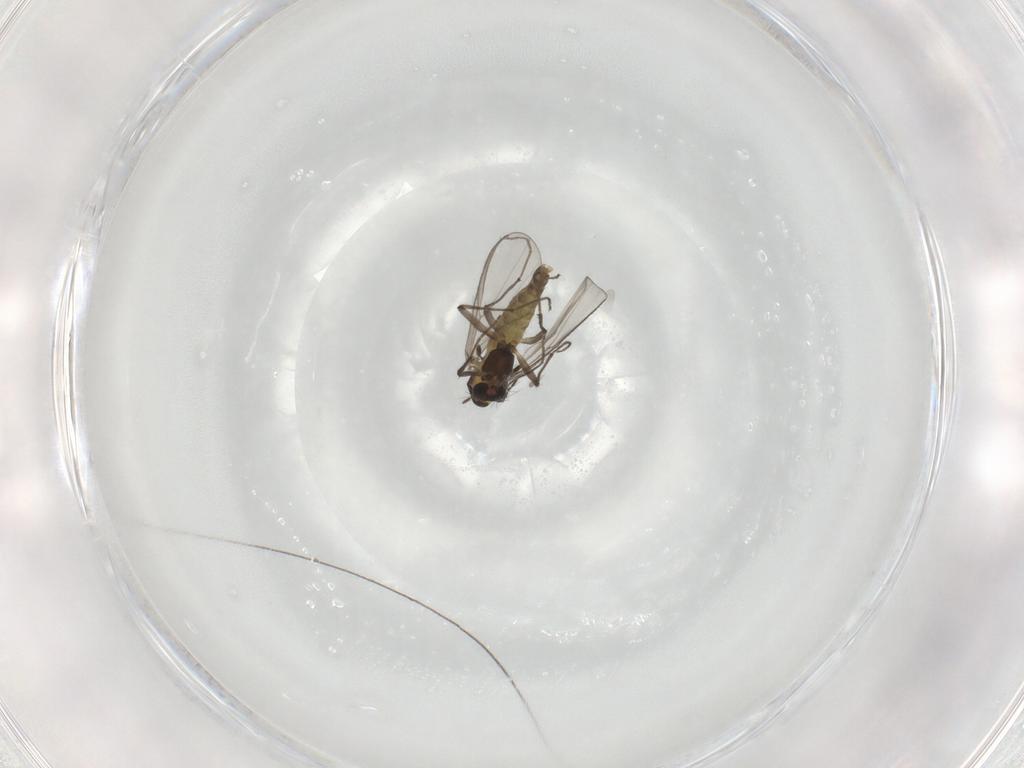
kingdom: Animalia
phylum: Arthropoda
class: Insecta
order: Diptera
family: Chironomidae
